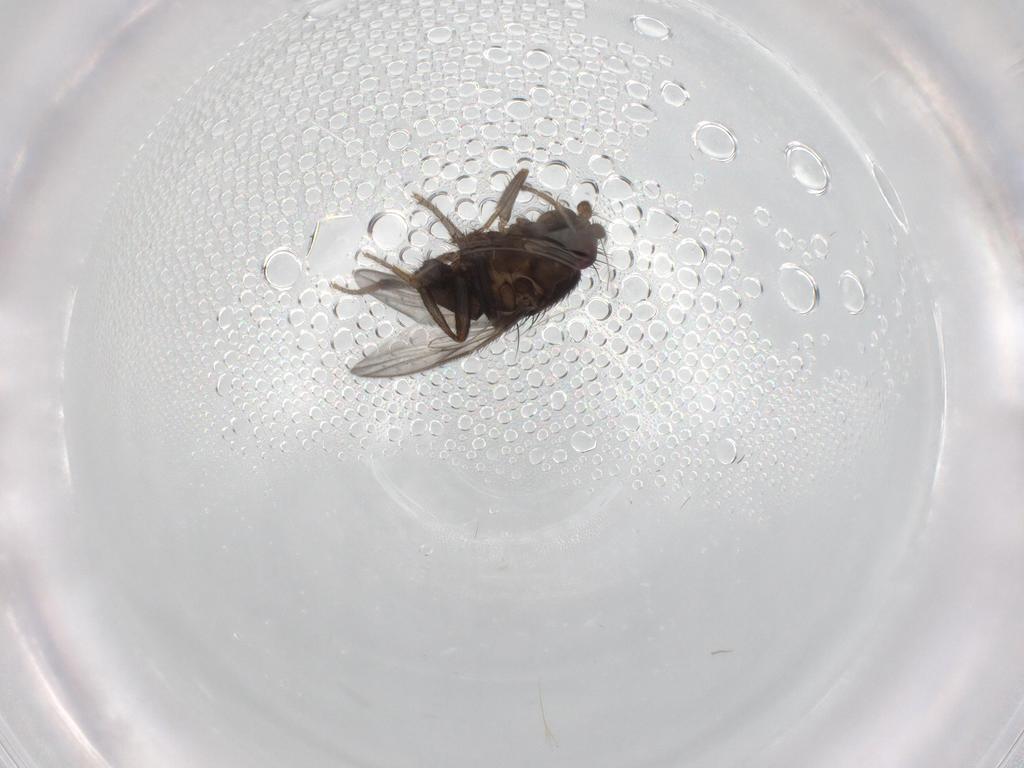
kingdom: Animalia
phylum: Arthropoda
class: Insecta
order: Diptera
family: Sphaeroceridae
